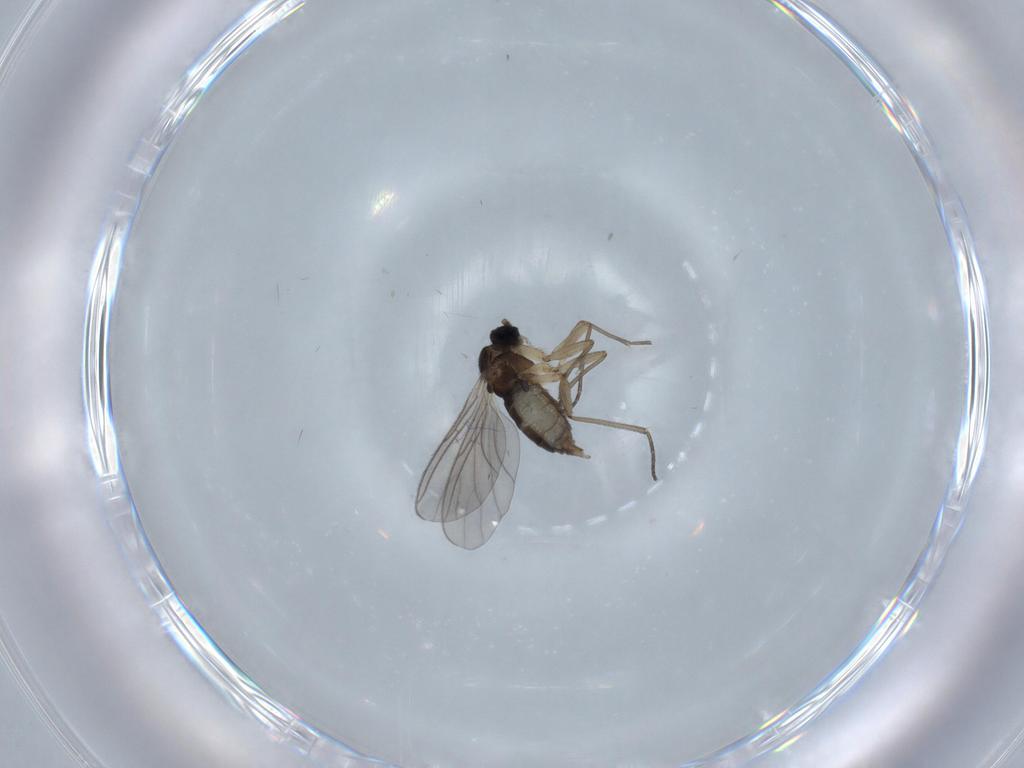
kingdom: Animalia
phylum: Arthropoda
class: Insecta
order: Diptera
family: Sciaridae
